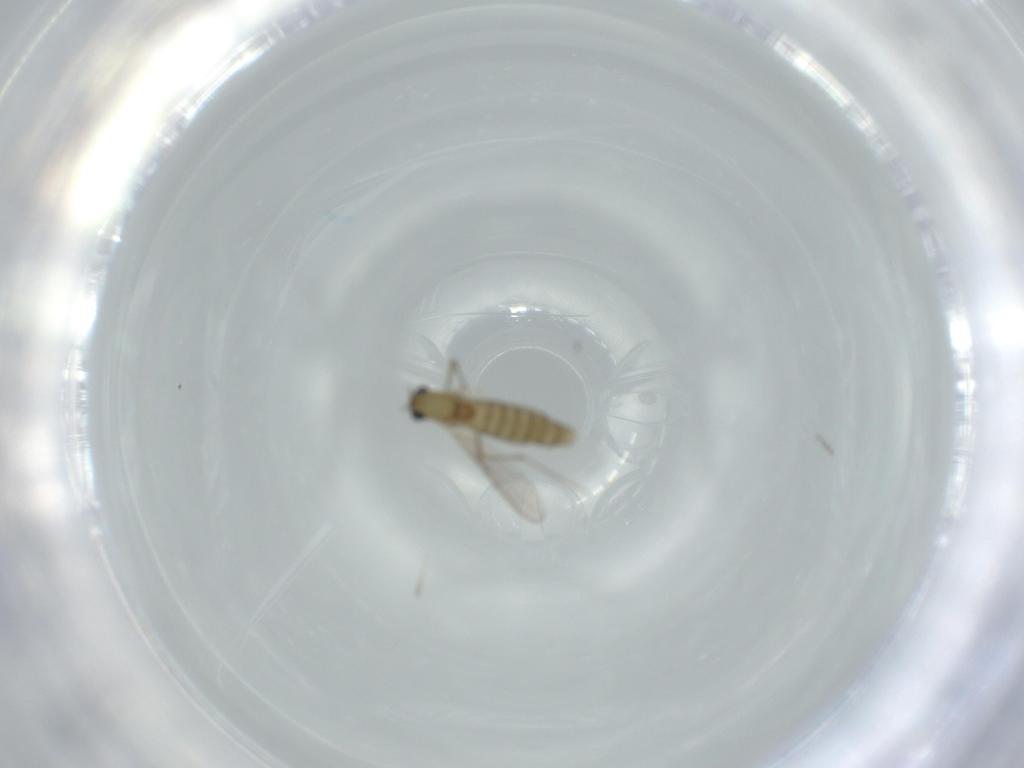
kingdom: Animalia
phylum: Arthropoda
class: Insecta
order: Diptera
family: Chironomidae
